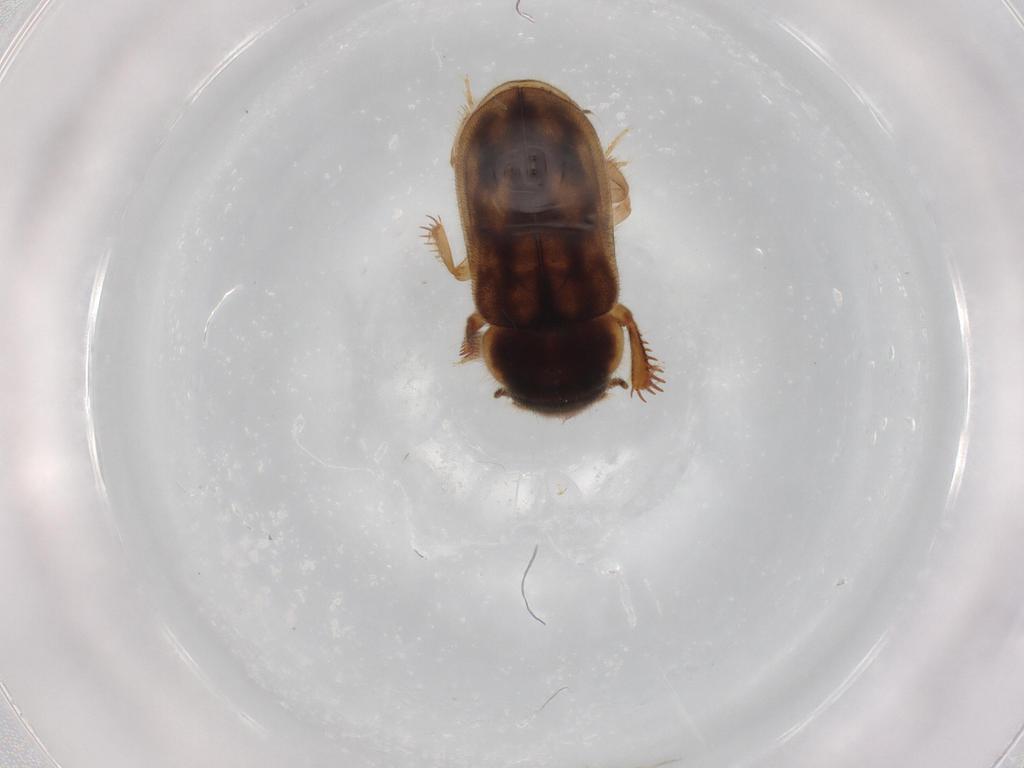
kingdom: Animalia
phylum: Arthropoda
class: Insecta
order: Coleoptera
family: Heteroceridae
